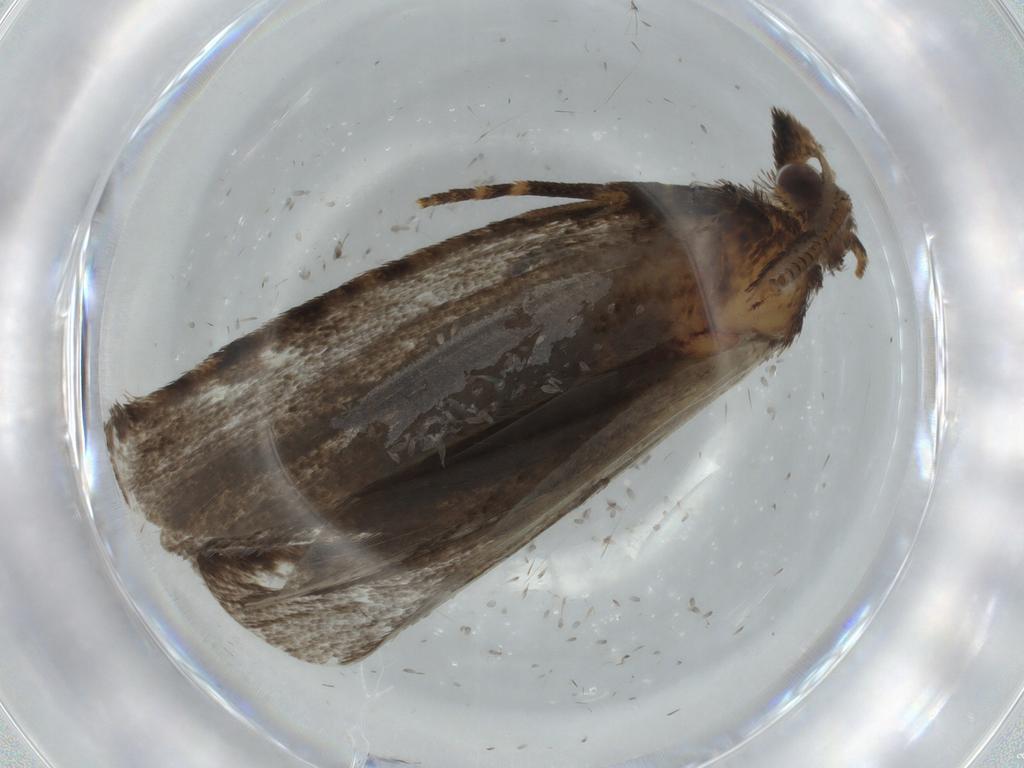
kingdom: Animalia
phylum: Arthropoda
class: Insecta
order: Lepidoptera
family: Tineidae
